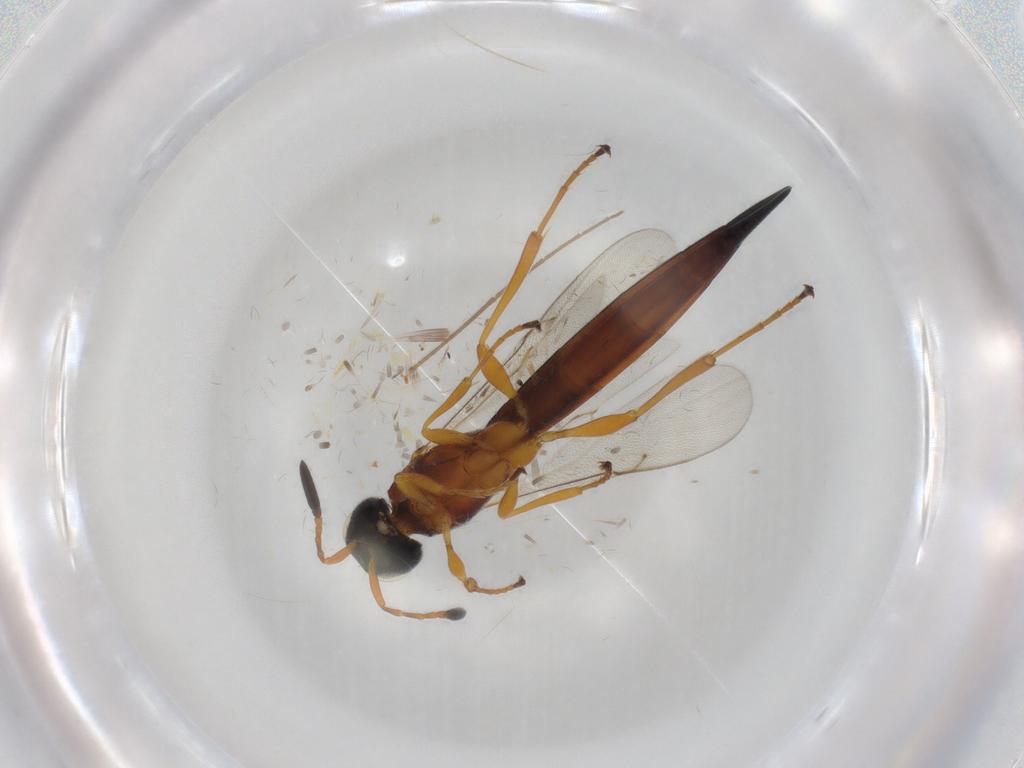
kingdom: Animalia
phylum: Arthropoda
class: Insecta
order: Hymenoptera
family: Scelionidae
